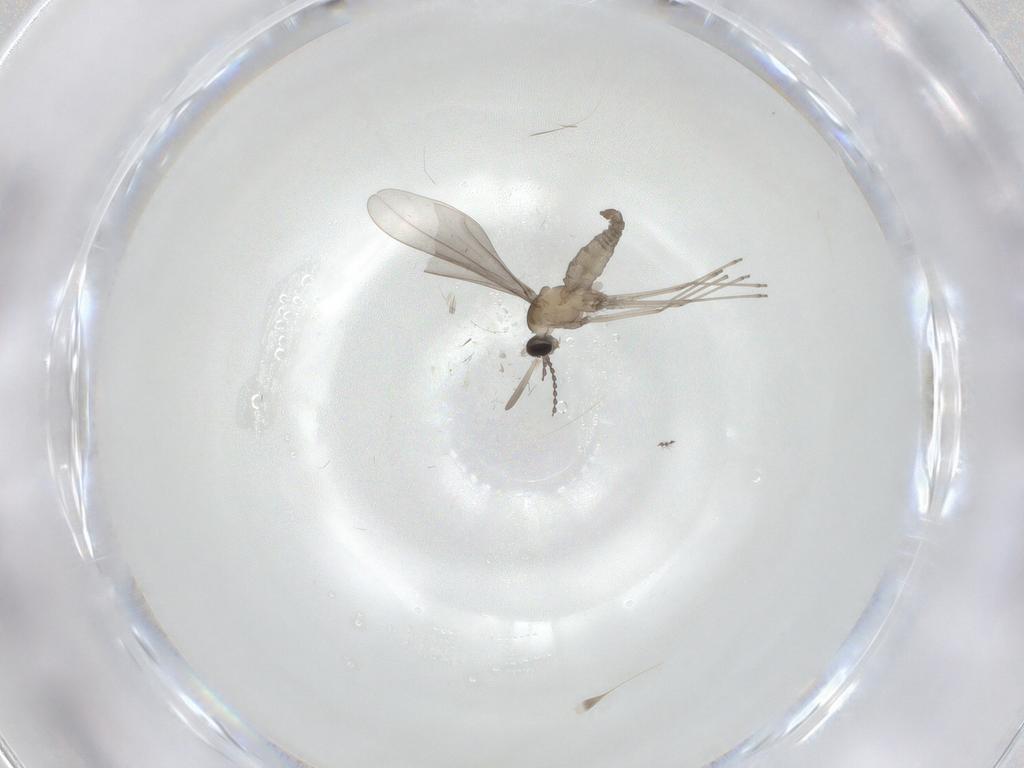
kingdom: Animalia
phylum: Arthropoda
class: Insecta
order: Diptera
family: Cecidomyiidae
